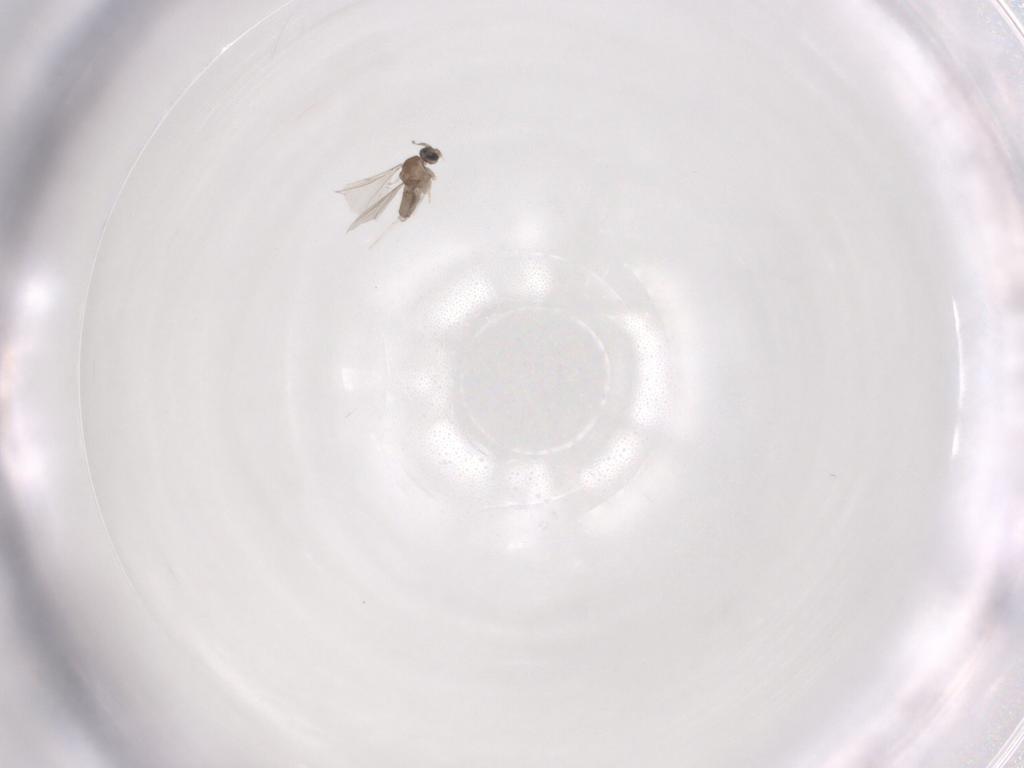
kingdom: Animalia
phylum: Arthropoda
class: Insecta
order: Diptera
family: Cecidomyiidae
